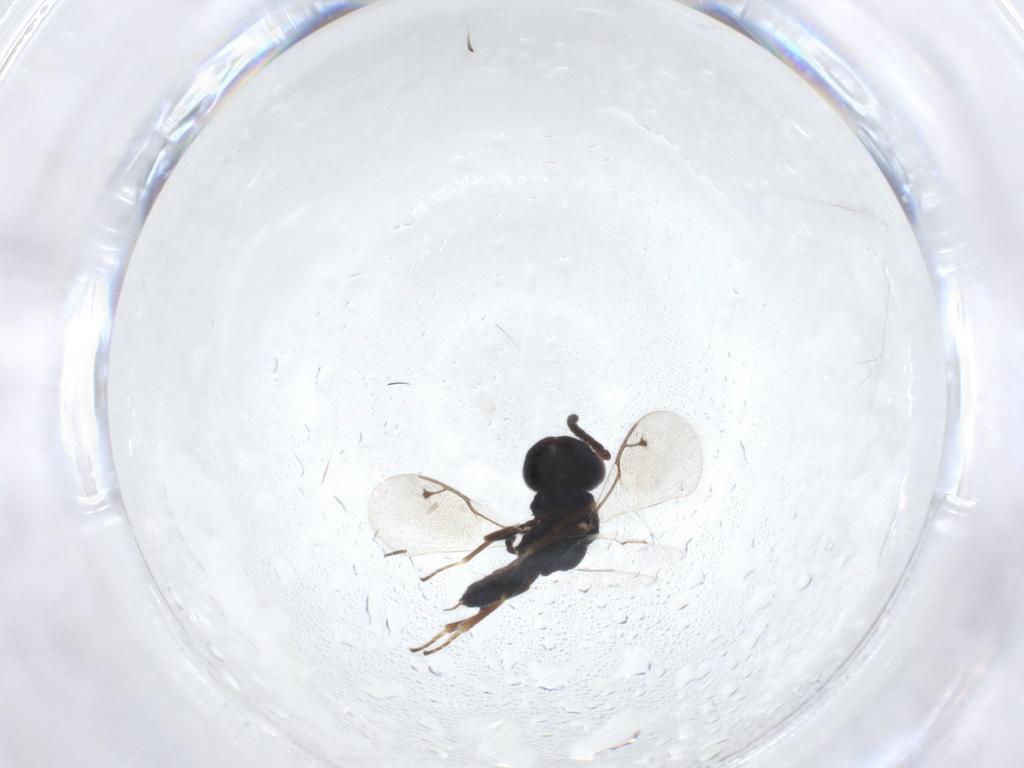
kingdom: Animalia
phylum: Arthropoda
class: Insecta
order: Hymenoptera
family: Pteromalidae
